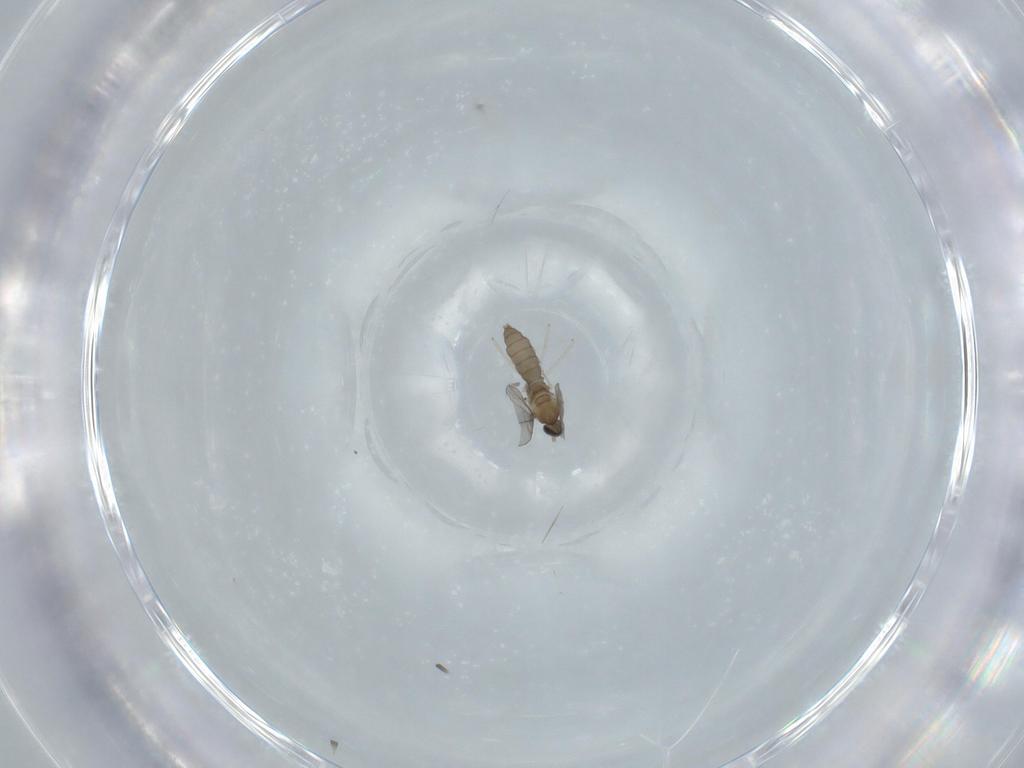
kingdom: Animalia
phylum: Arthropoda
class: Insecta
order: Diptera
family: Cecidomyiidae
